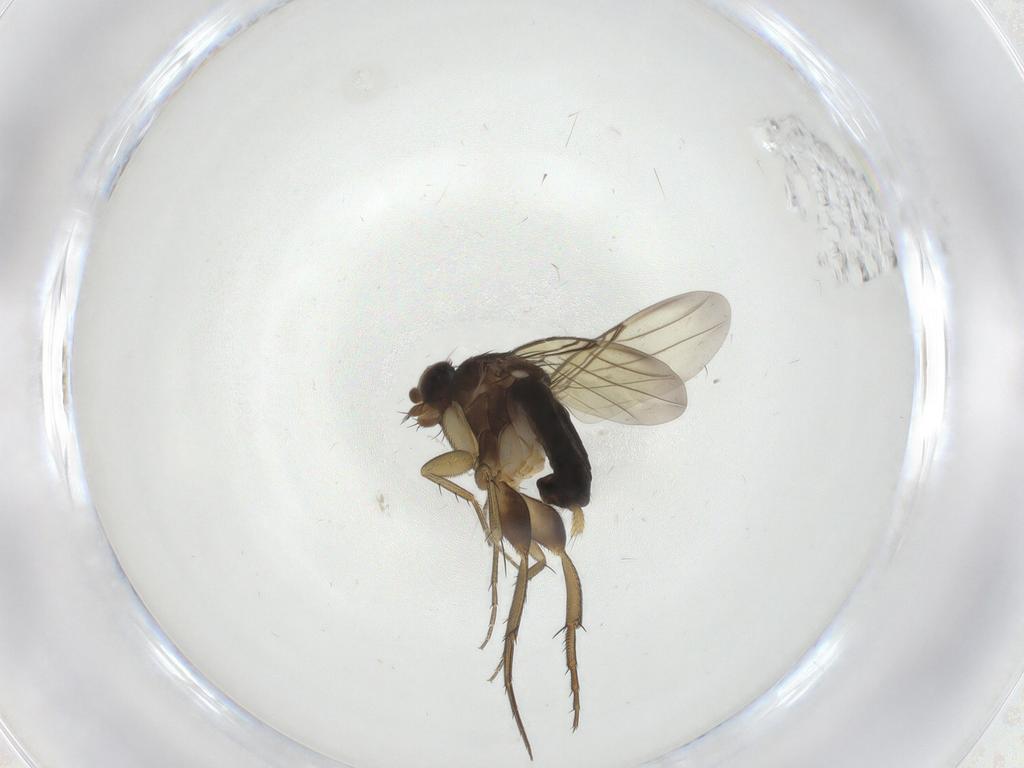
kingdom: Animalia
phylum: Arthropoda
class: Insecta
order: Diptera
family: Phoridae
